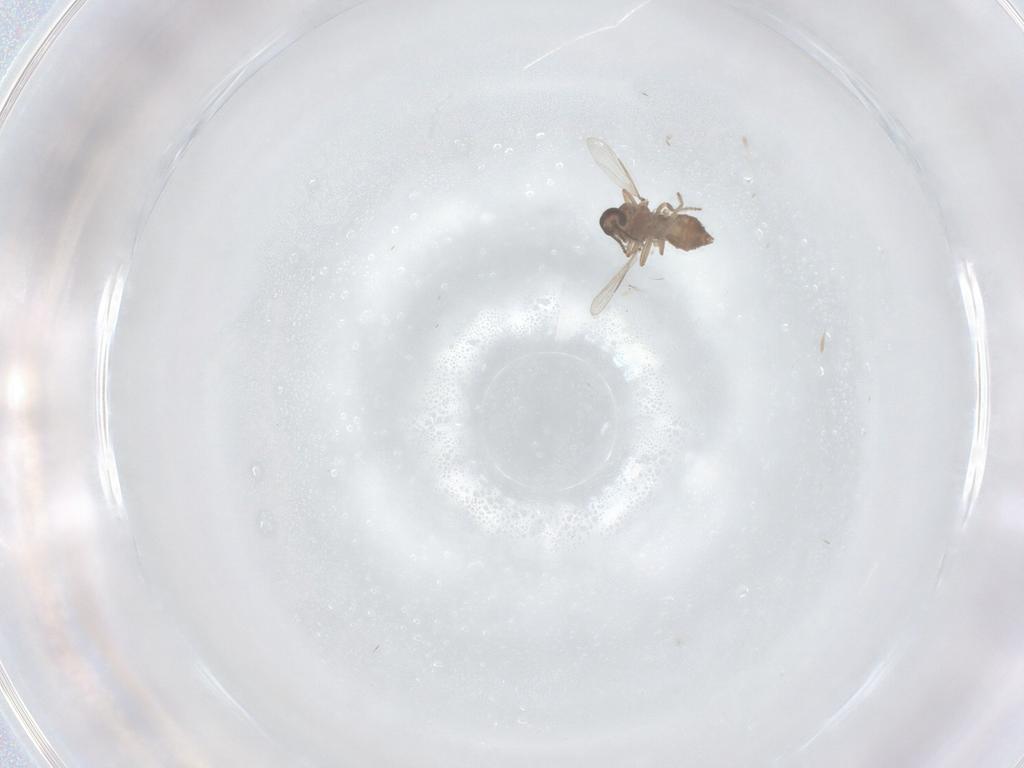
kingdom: Animalia
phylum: Arthropoda
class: Insecta
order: Diptera
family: Ceratopogonidae
